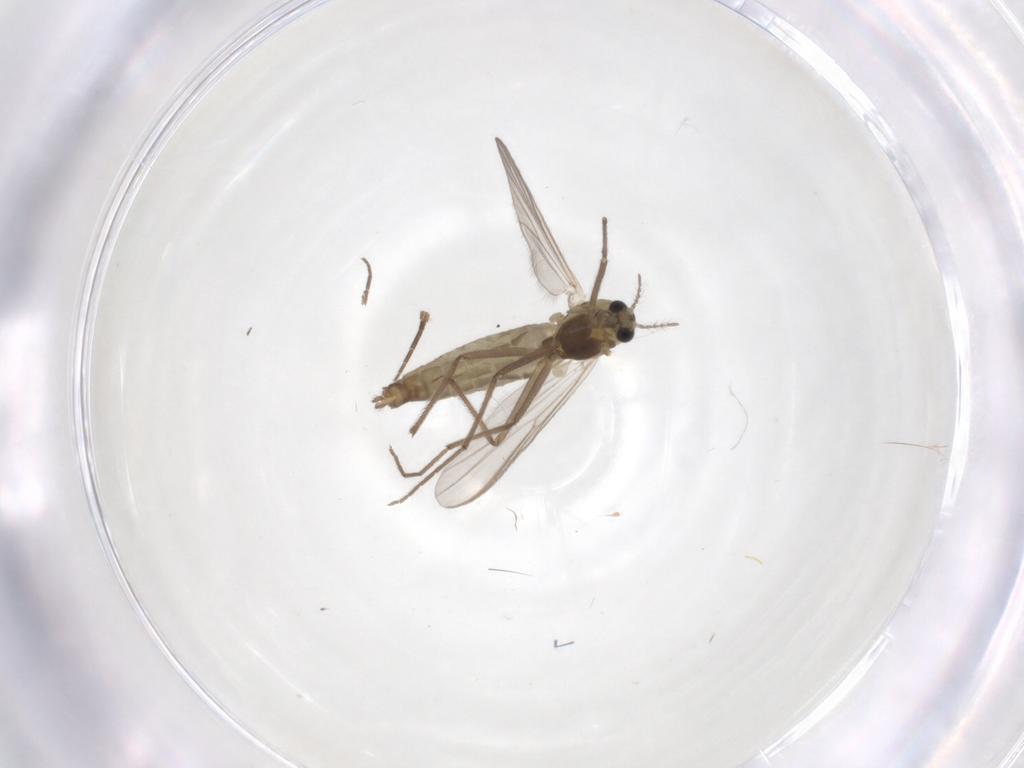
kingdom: Animalia
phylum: Arthropoda
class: Insecta
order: Diptera
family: Chironomidae
